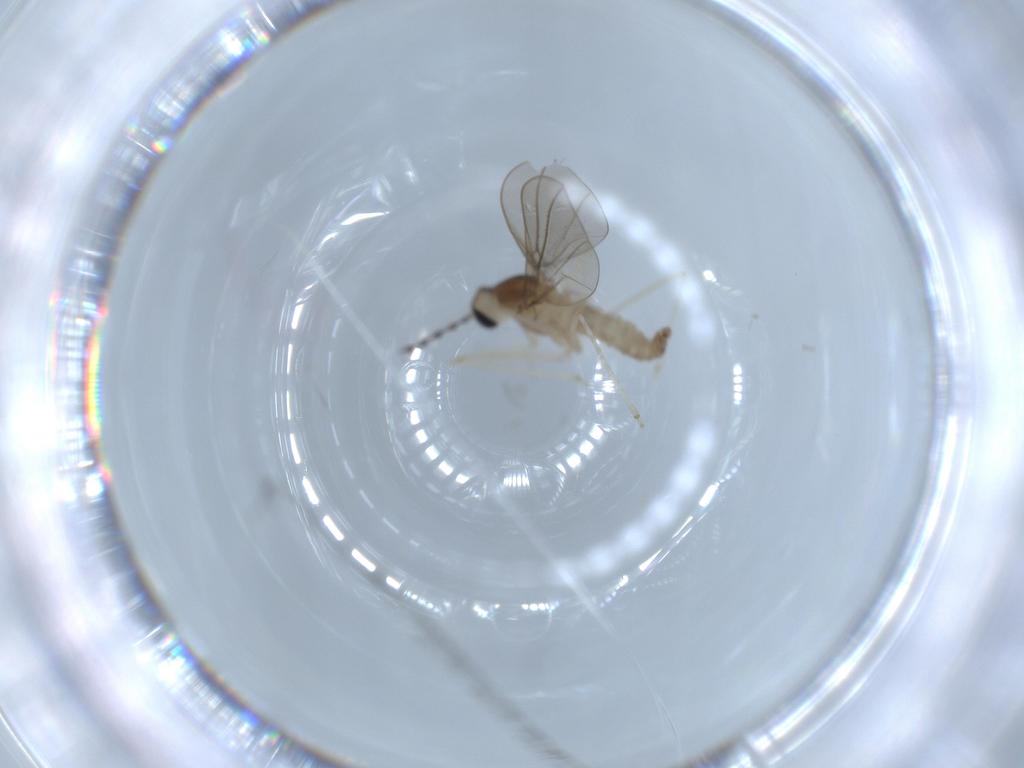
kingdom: Animalia
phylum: Arthropoda
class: Insecta
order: Diptera
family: Cecidomyiidae
